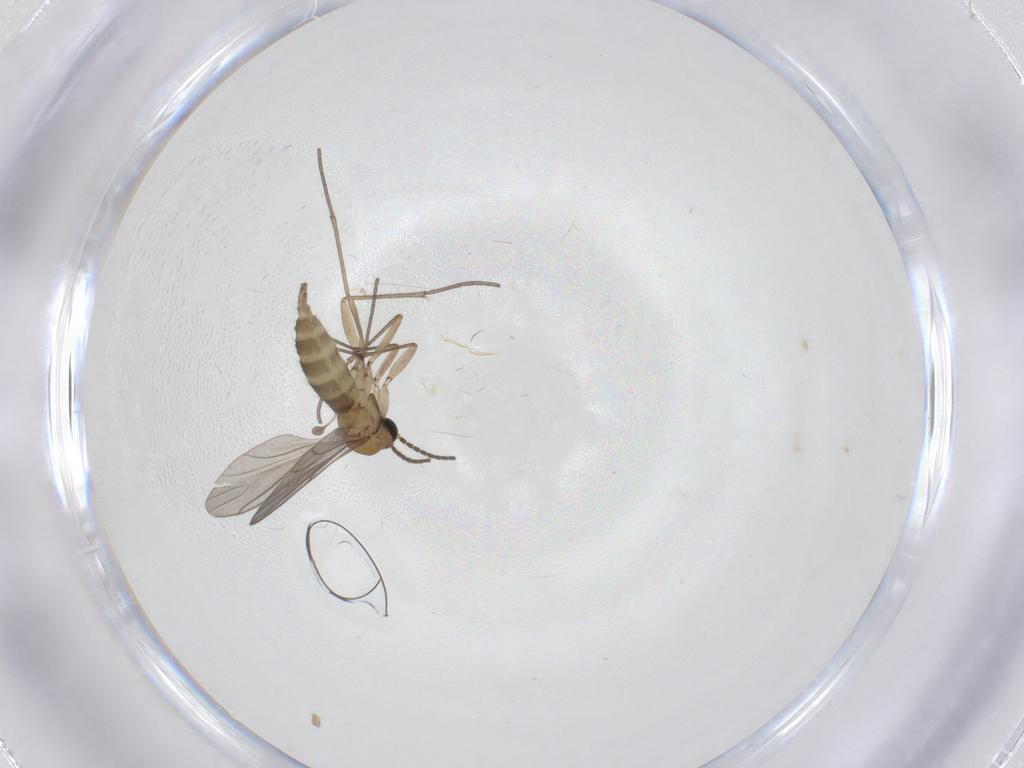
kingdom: Animalia
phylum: Arthropoda
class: Insecta
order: Diptera
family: Sciaridae
